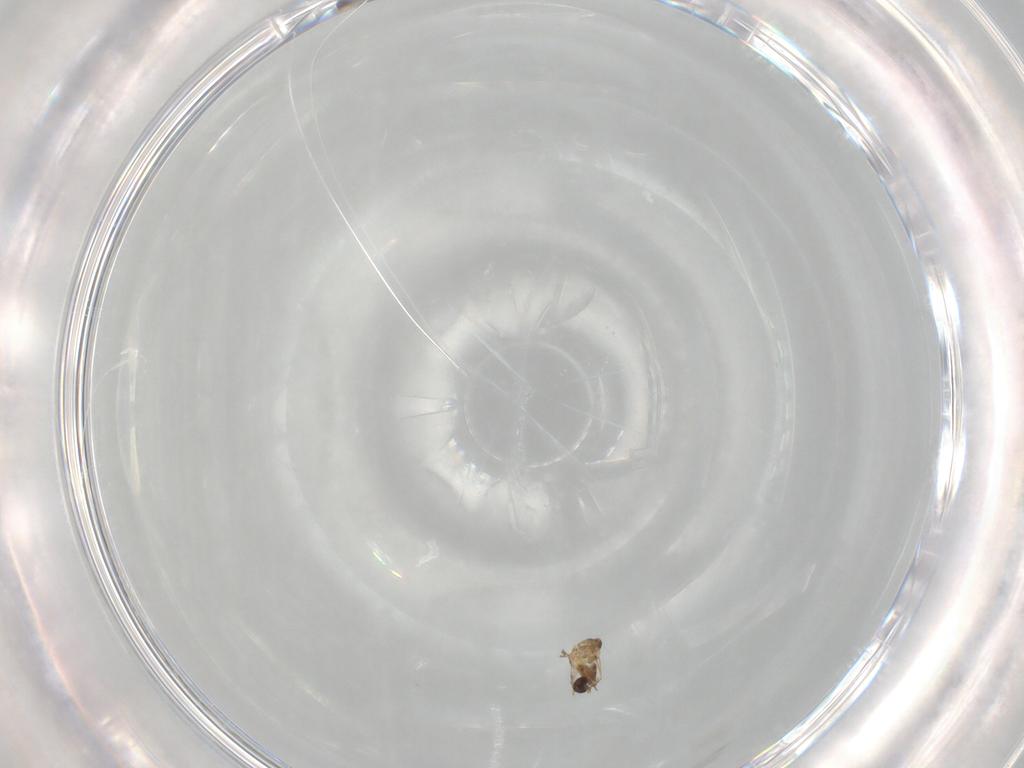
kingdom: Animalia
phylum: Arthropoda
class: Insecta
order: Hymenoptera
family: Mymaridae
